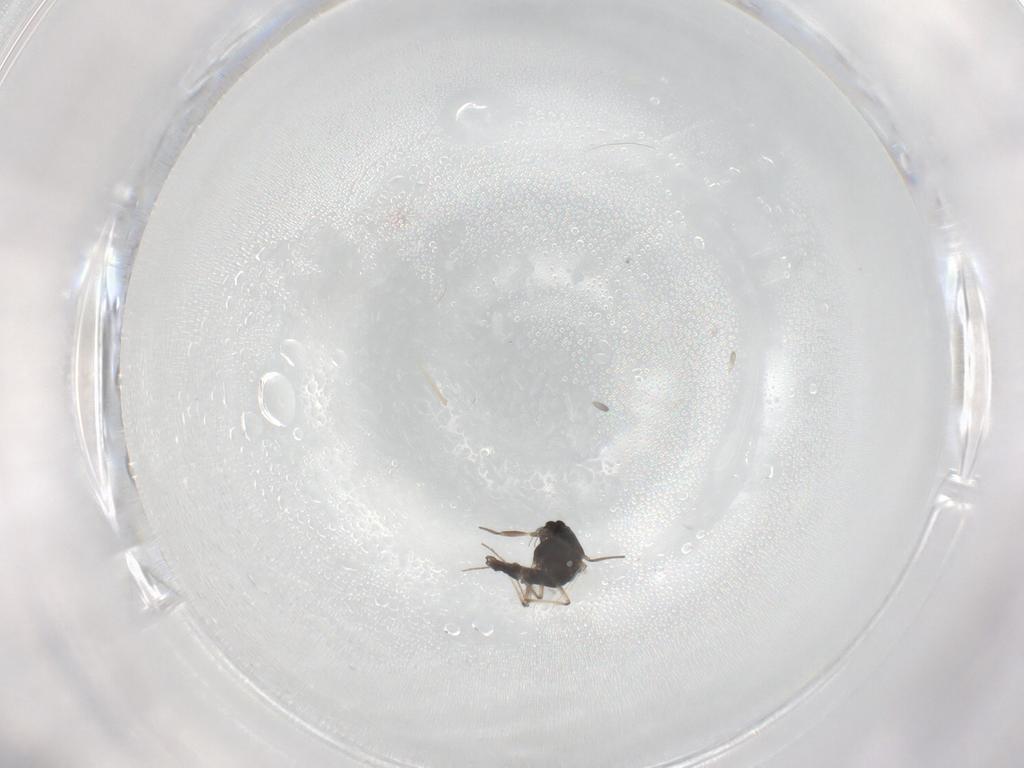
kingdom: Animalia
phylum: Arthropoda
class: Insecta
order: Diptera
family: Chironomidae
